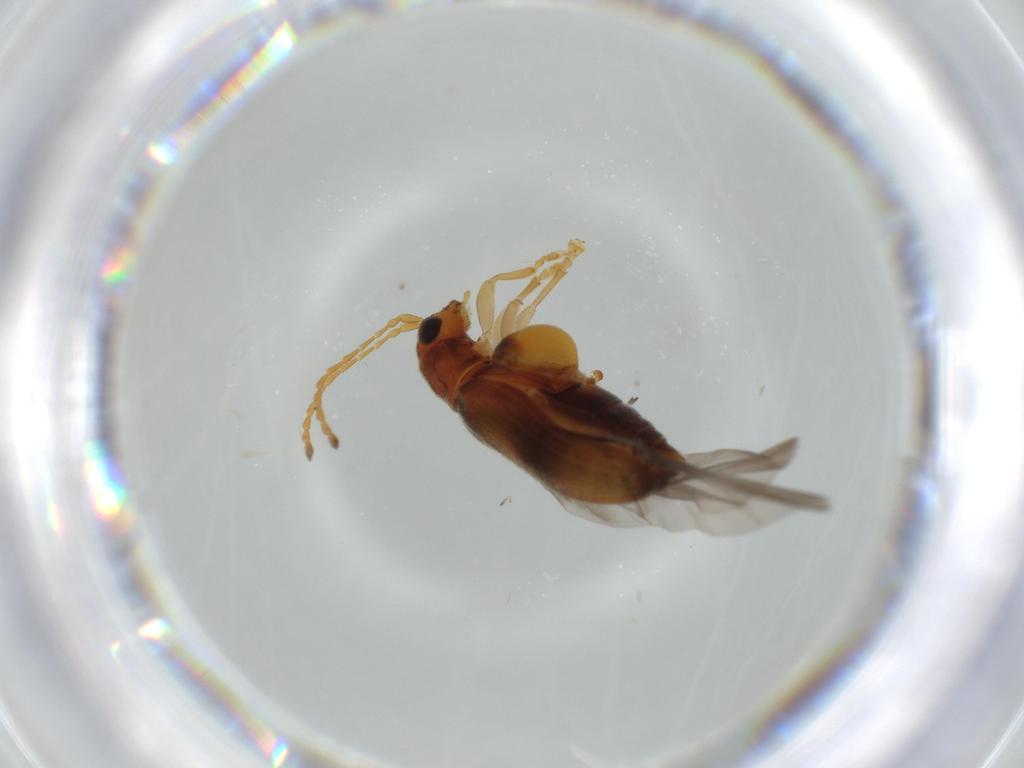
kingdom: Animalia
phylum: Arthropoda
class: Insecta
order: Coleoptera
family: Chrysomelidae
